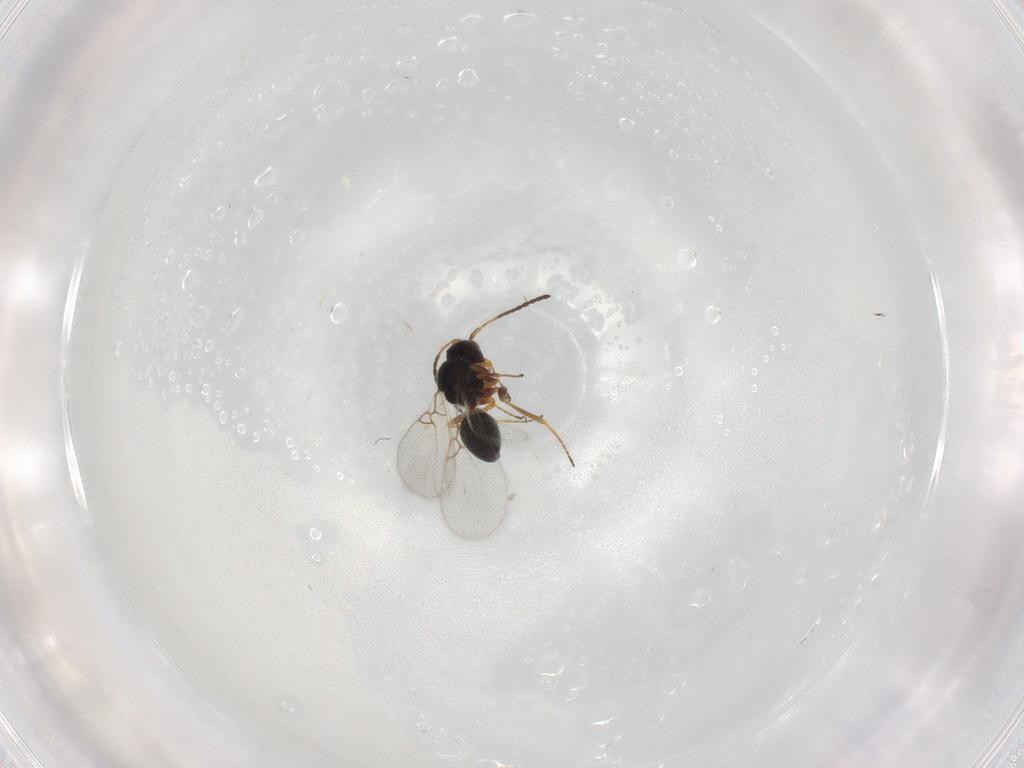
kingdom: Animalia
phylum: Arthropoda
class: Insecta
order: Hymenoptera
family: Figitidae
